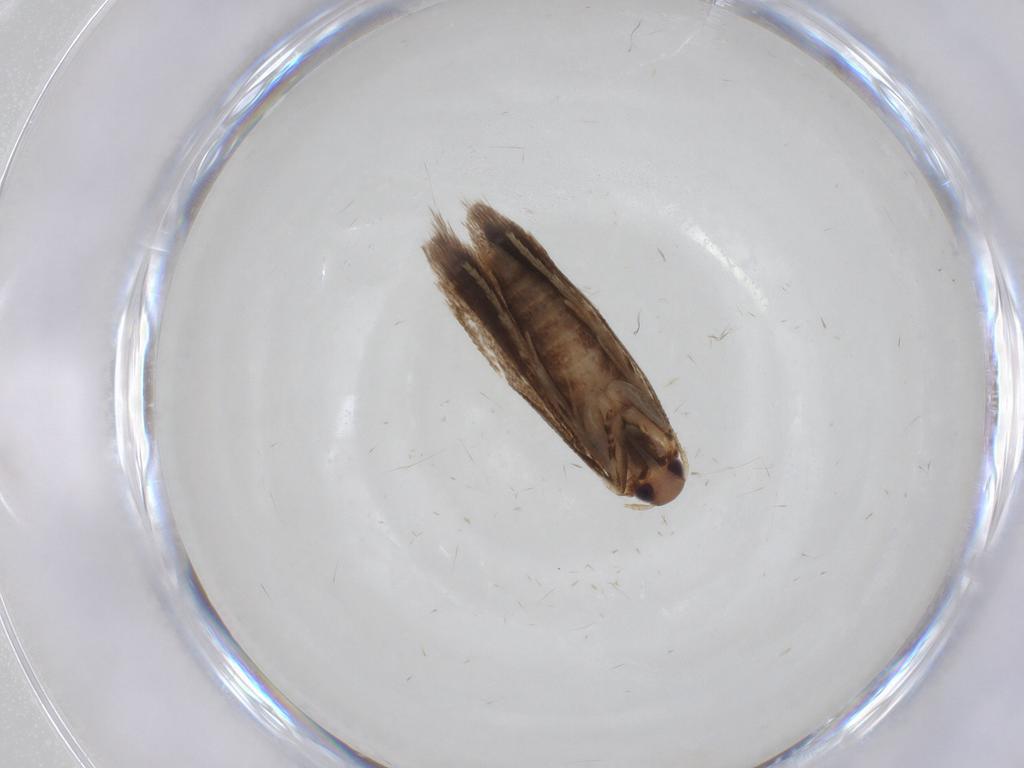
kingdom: Animalia
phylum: Arthropoda
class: Insecta
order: Lepidoptera
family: Gelechiidae
